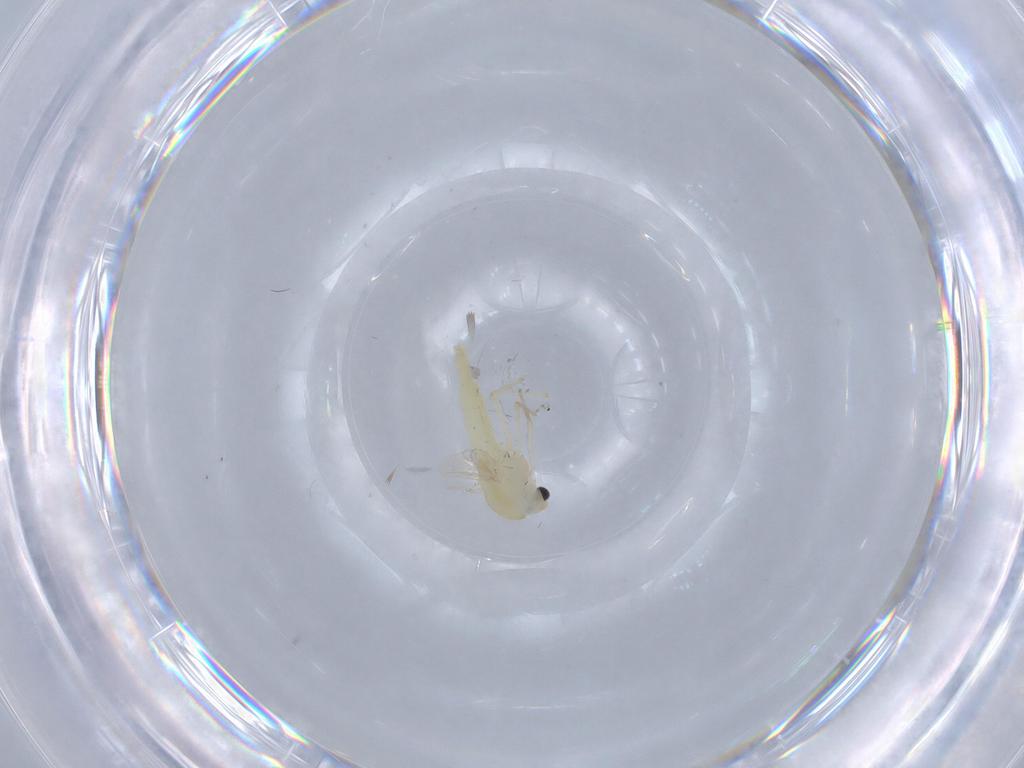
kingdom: Animalia
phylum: Arthropoda
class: Insecta
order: Diptera
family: Chironomidae
